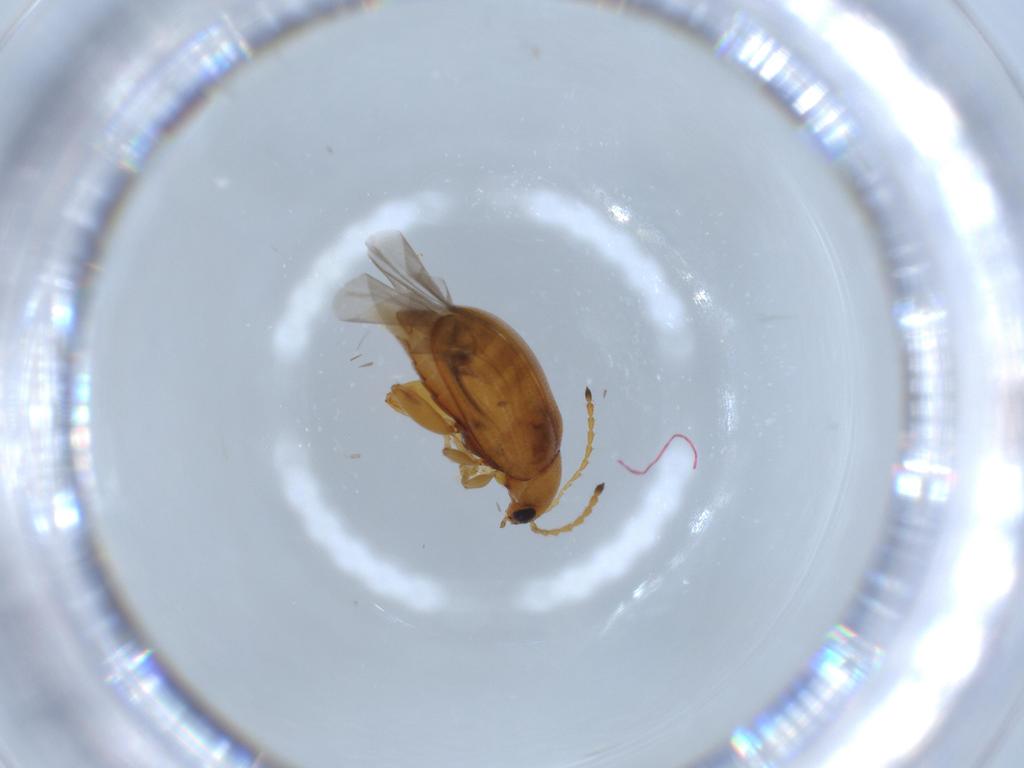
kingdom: Animalia
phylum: Arthropoda
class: Insecta
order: Coleoptera
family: Chrysomelidae
